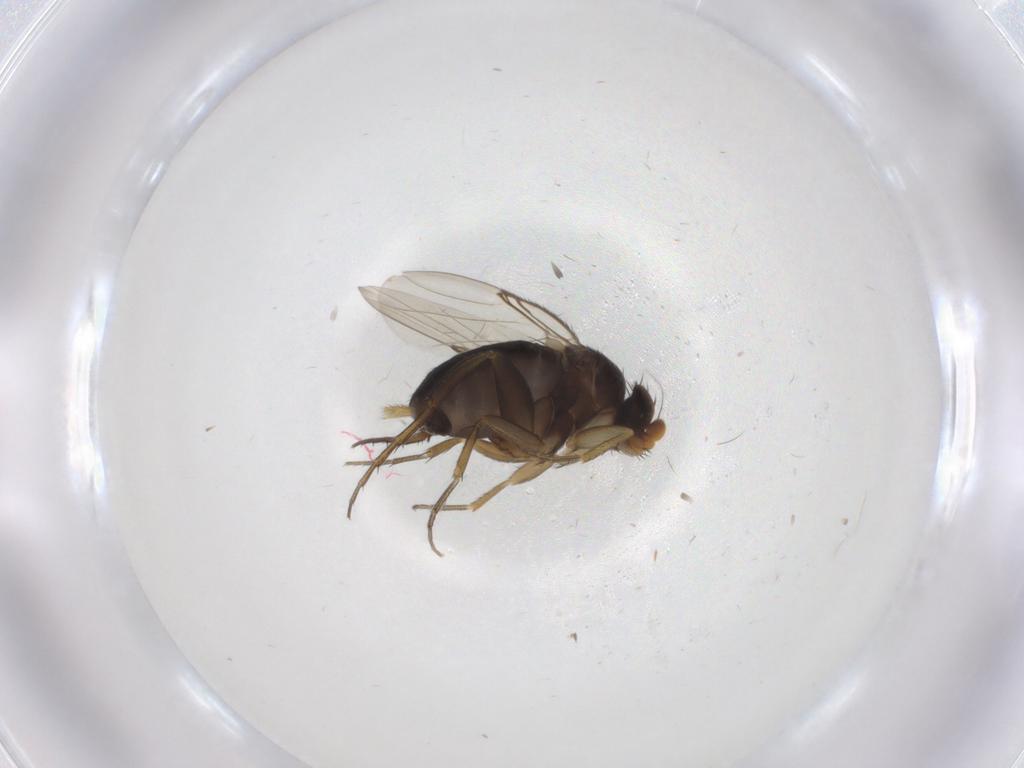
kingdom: Animalia
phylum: Arthropoda
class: Insecta
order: Diptera
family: Phoridae
